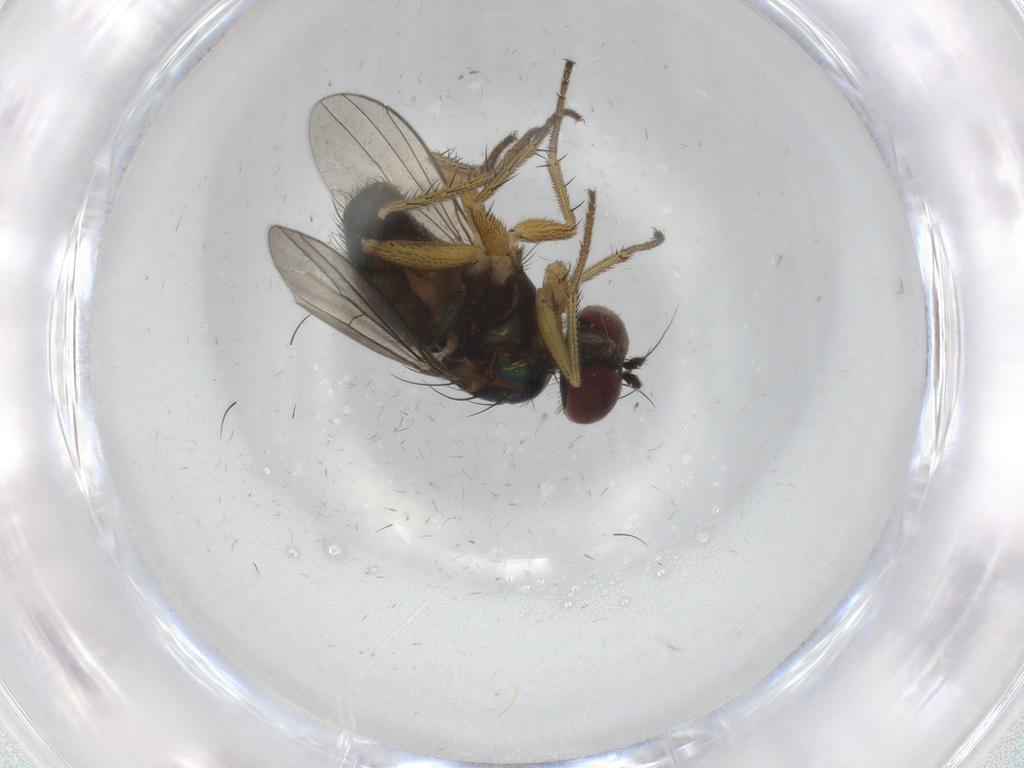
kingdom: Animalia
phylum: Arthropoda
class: Insecta
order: Diptera
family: Dolichopodidae
